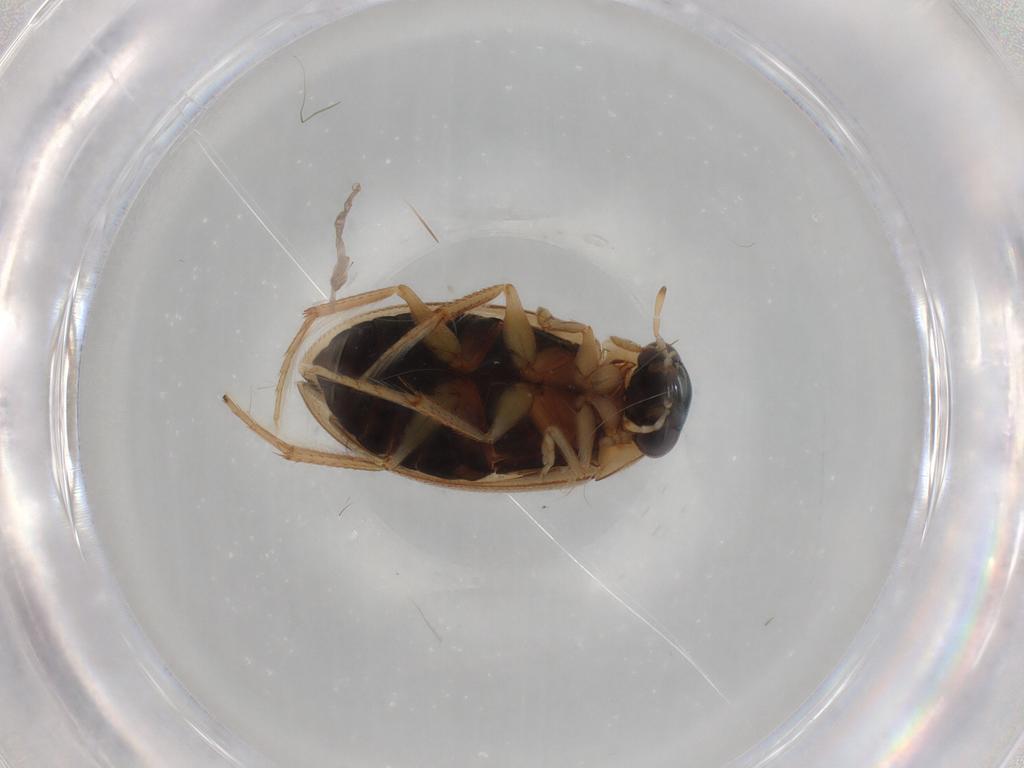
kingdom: Animalia
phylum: Arthropoda
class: Insecta
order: Coleoptera
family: Hydrophilidae
